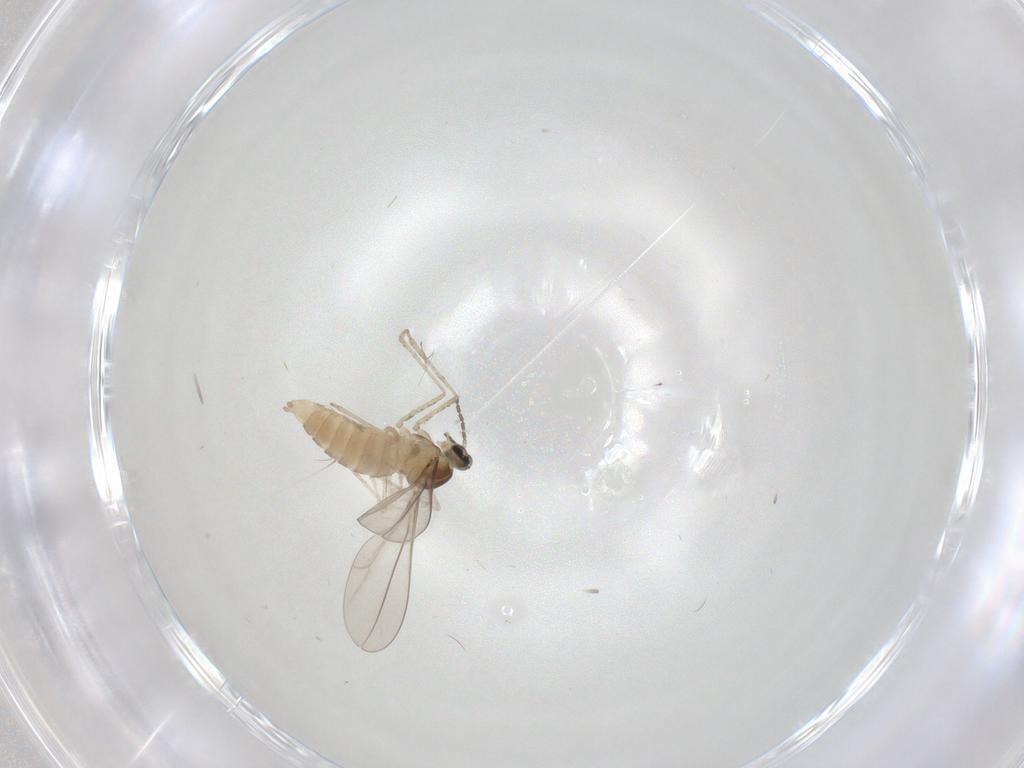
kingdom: Animalia
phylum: Arthropoda
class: Insecta
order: Diptera
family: Cecidomyiidae
